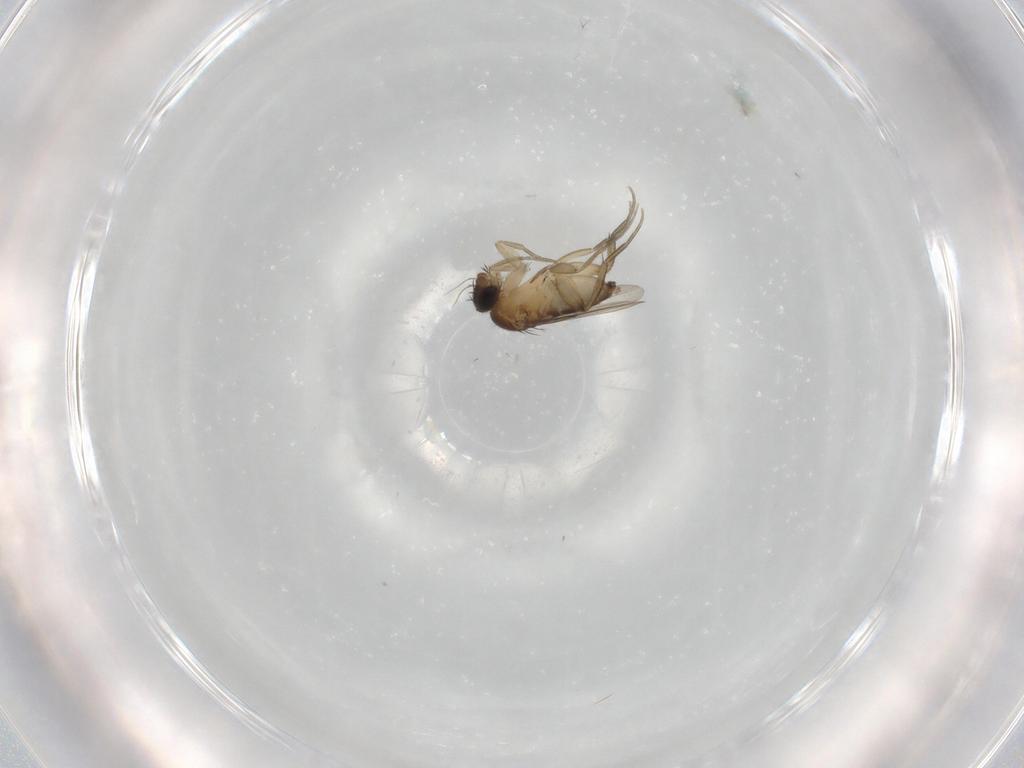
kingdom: Animalia
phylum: Arthropoda
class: Insecta
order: Diptera
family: Phoridae
